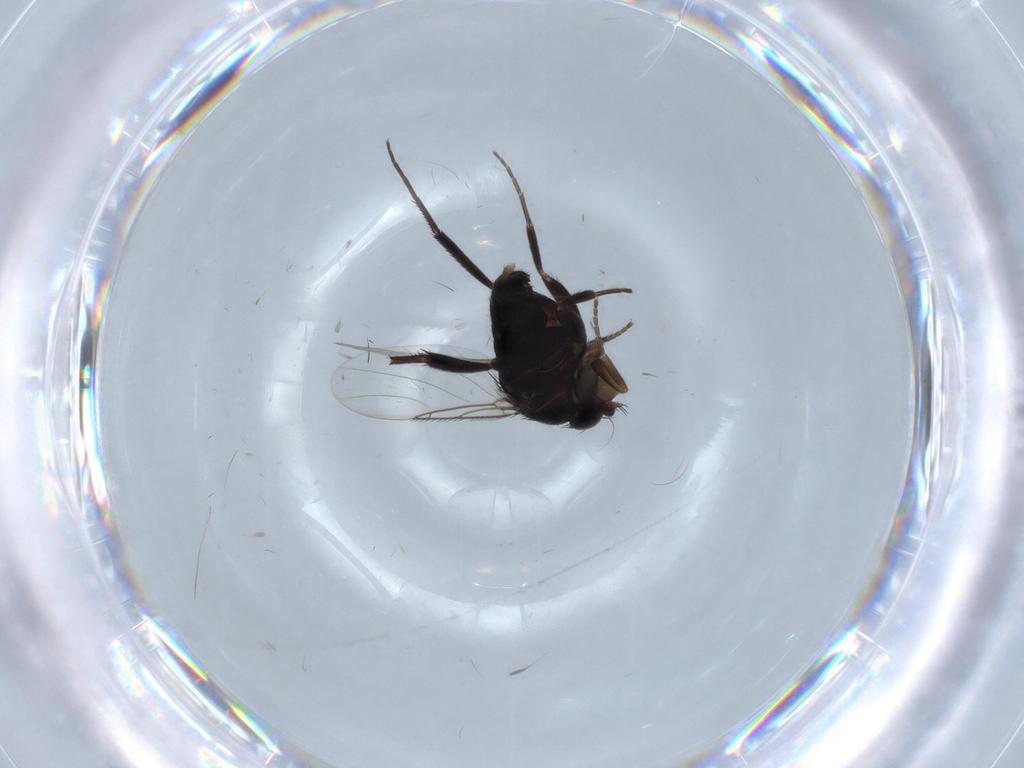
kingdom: Animalia
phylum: Arthropoda
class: Insecta
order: Diptera
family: Phoridae
